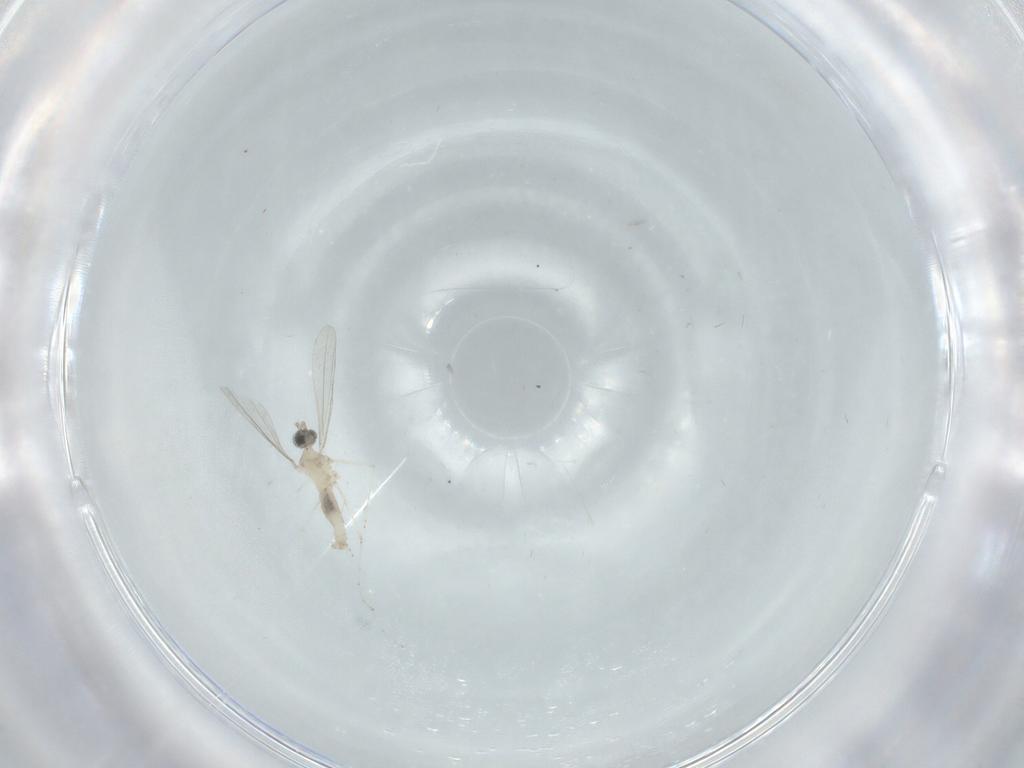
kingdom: Animalia
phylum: Arthropoda
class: Insecta
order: Diptera
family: Cecidomyiidae
